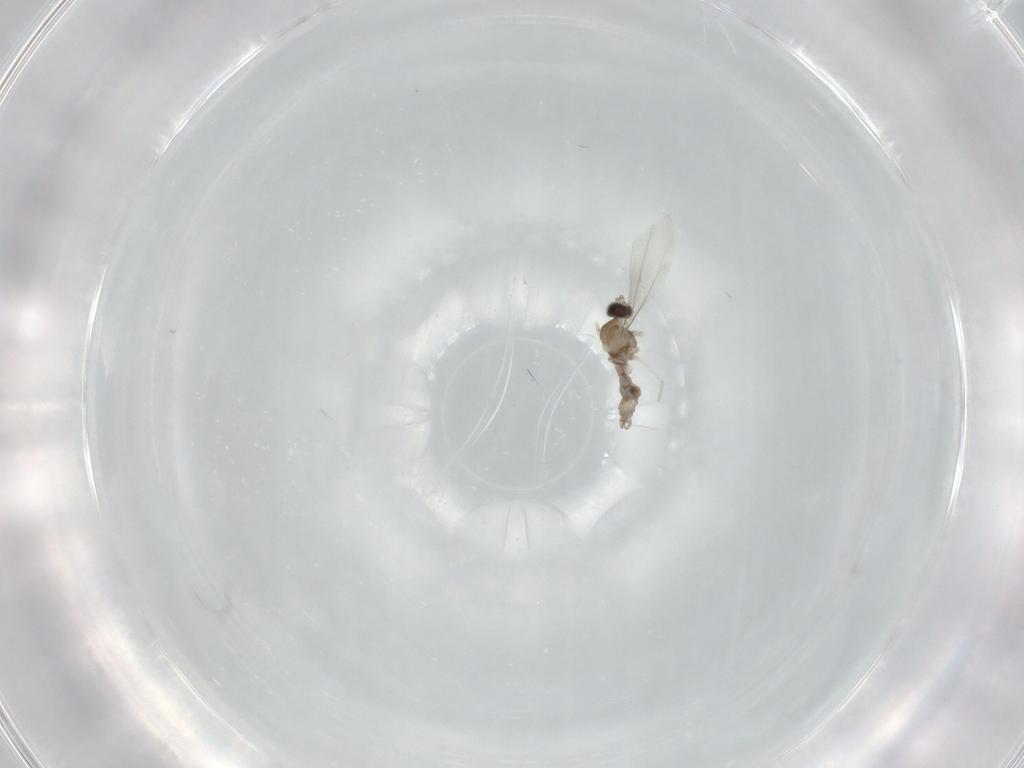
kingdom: Animalia
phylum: Arthropoda
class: Insecta
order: Diptera
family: Cecidomyiidae
